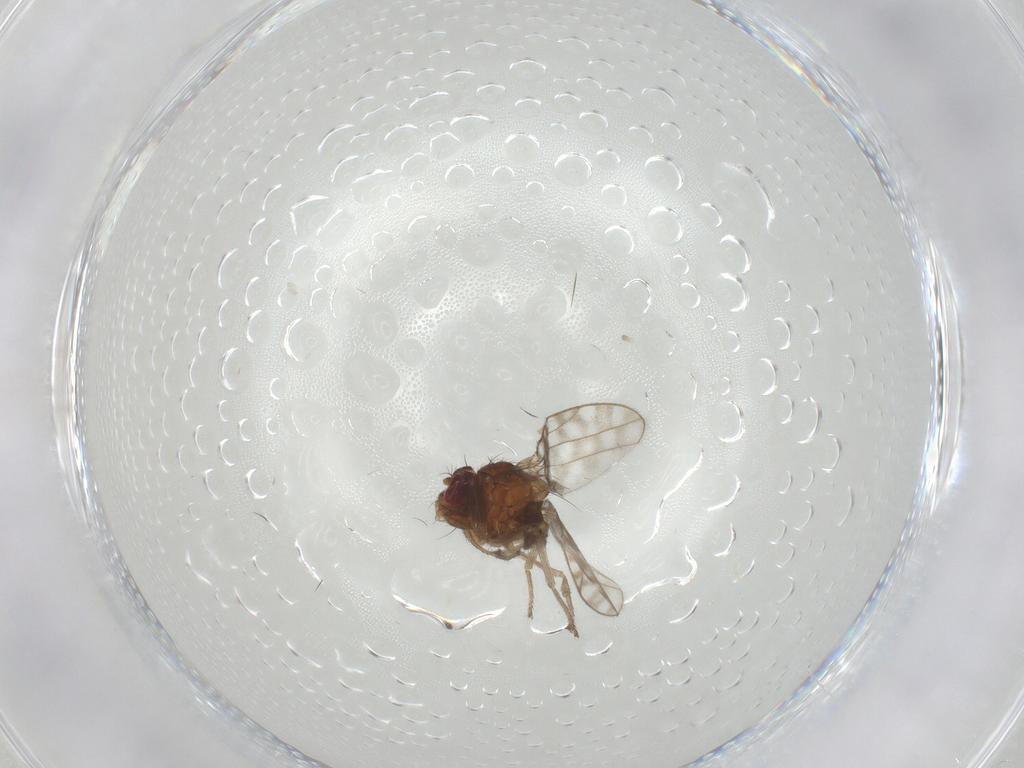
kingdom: Animalia
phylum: Arthropoda
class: Insecta
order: Diptera
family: Ephydridae
